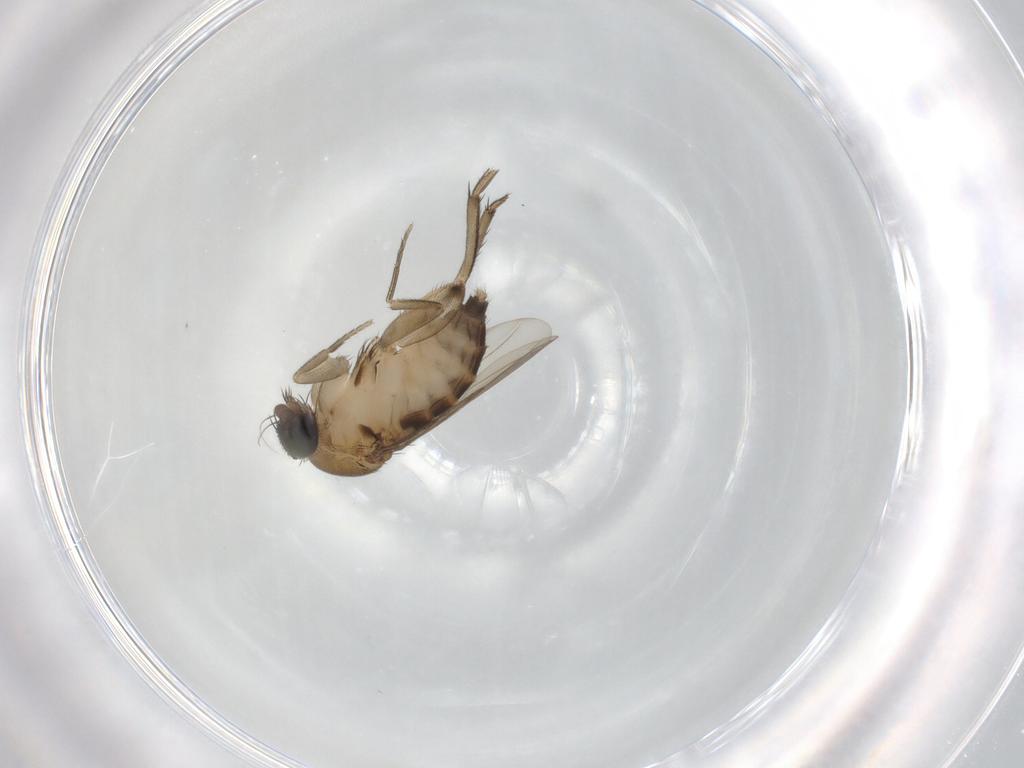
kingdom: Animalia
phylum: Arthropoda
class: Insecta
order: Diptera
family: Phoridae
